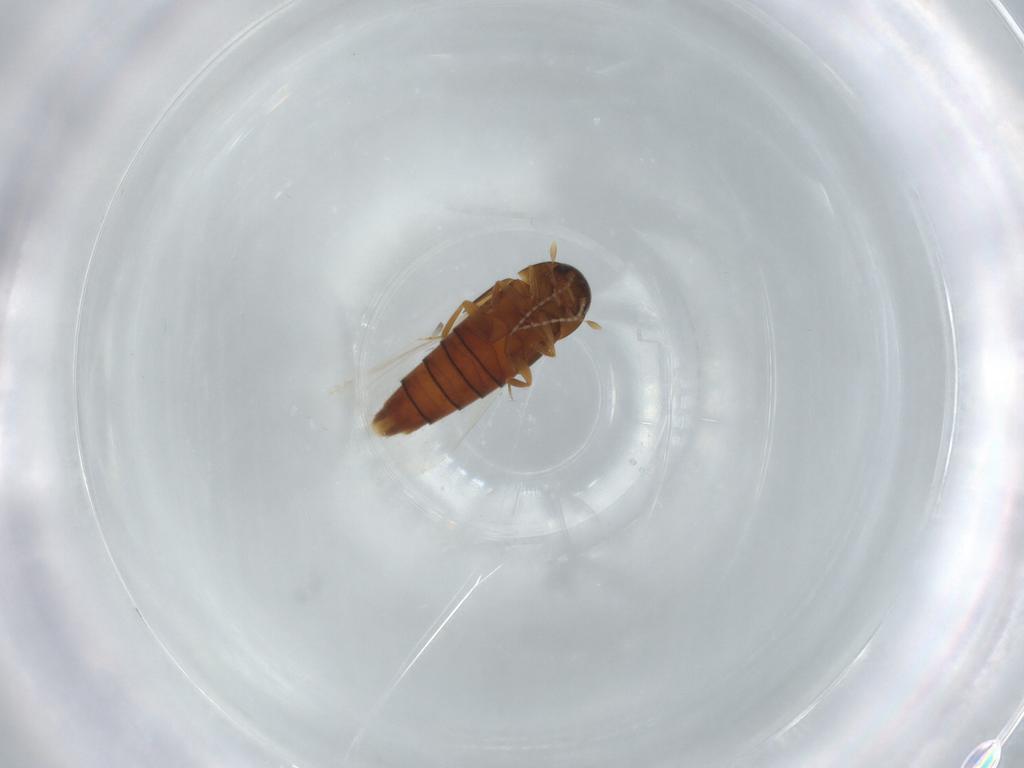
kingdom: Animalia
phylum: Arthropoda
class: Insecta
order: Coleoptera
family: Staphylinidae
